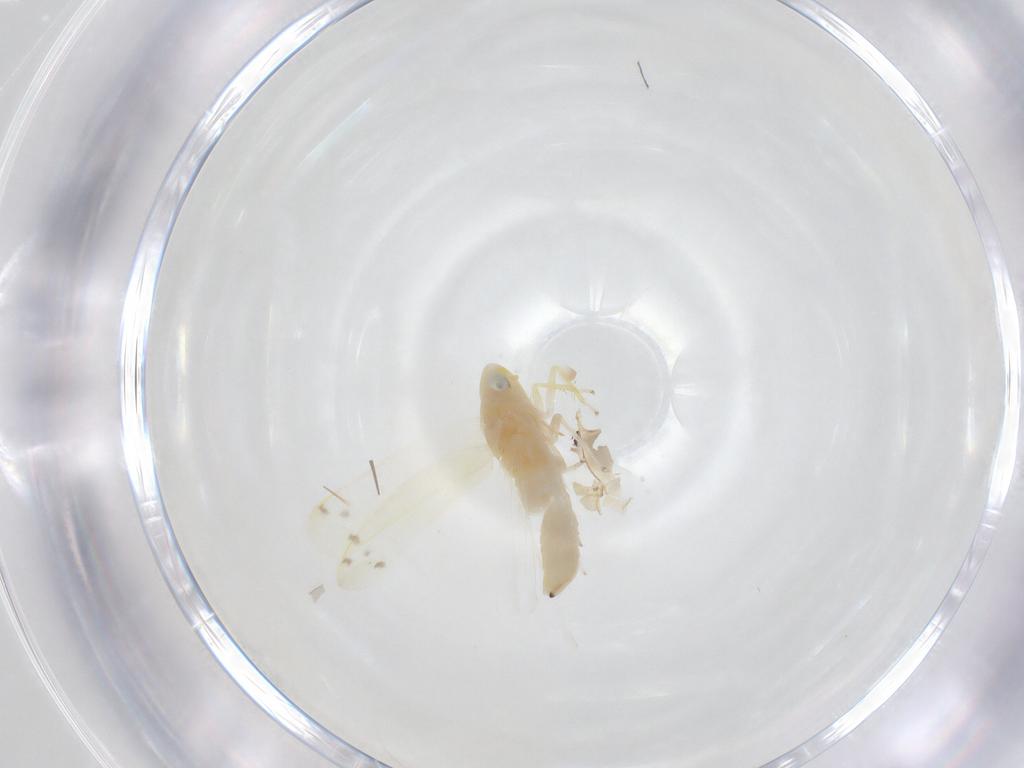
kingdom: Animalia
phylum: Arthropoda
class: Insecta
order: Hemiptera
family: Cicadellidae
